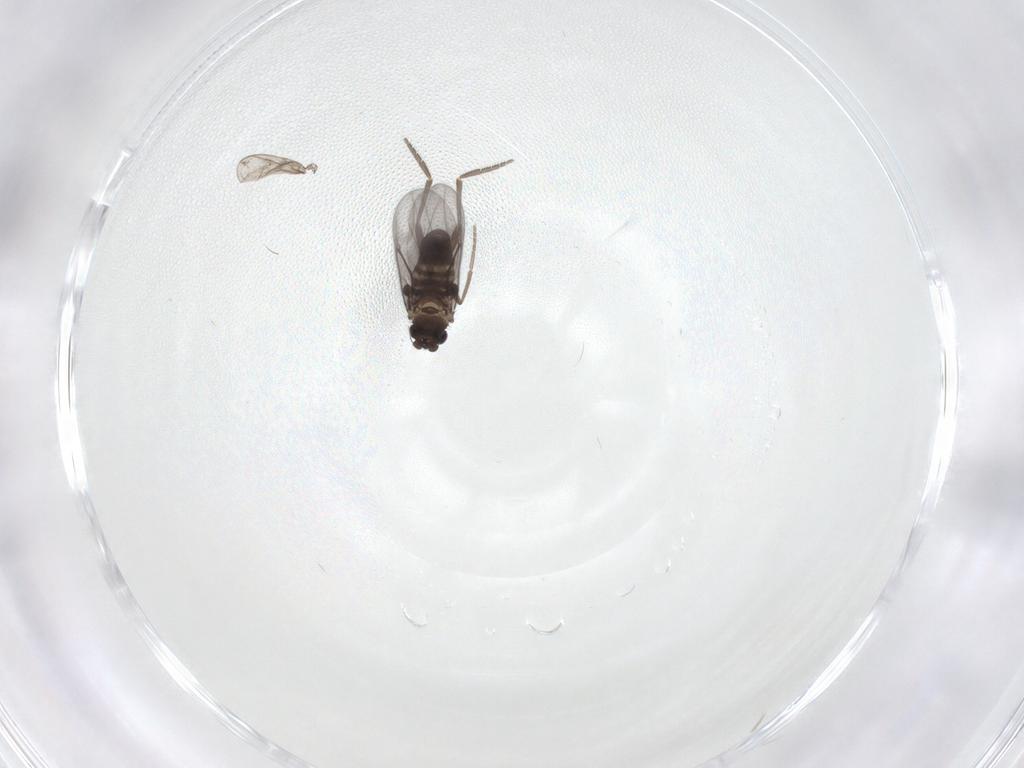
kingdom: Animalia
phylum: Arthropoda
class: Insecta
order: Diptera
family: Chironomidae
